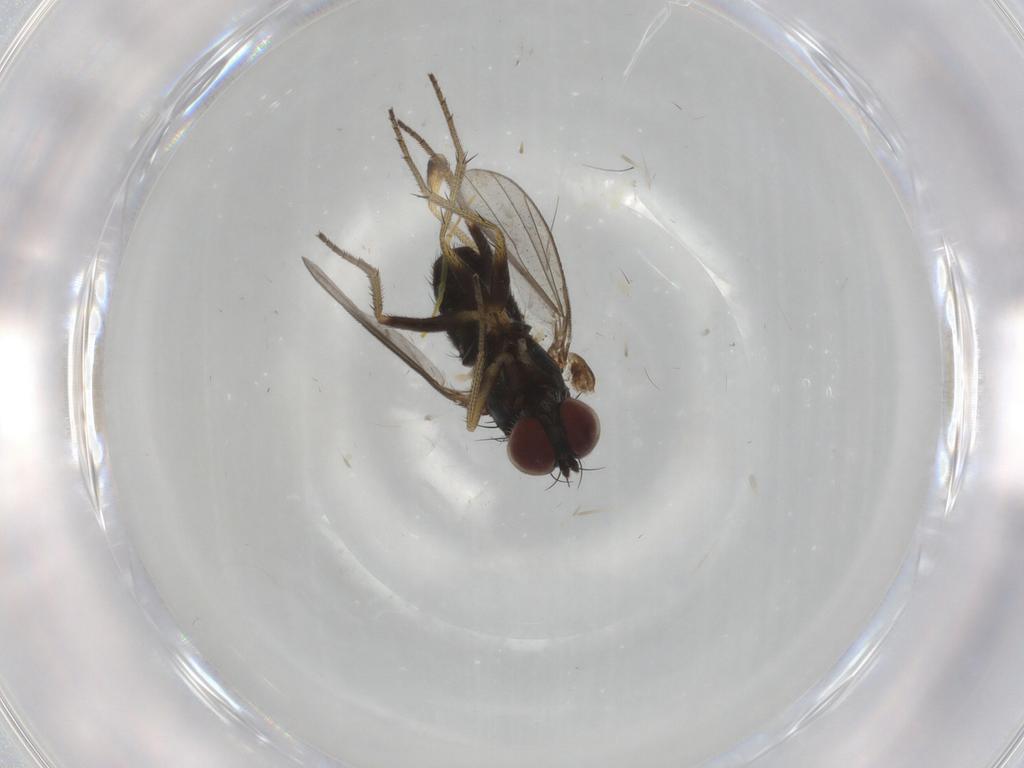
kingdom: Animalia
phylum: Arthropoda
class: Insecta
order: Diptera
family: Dolichopodidae
